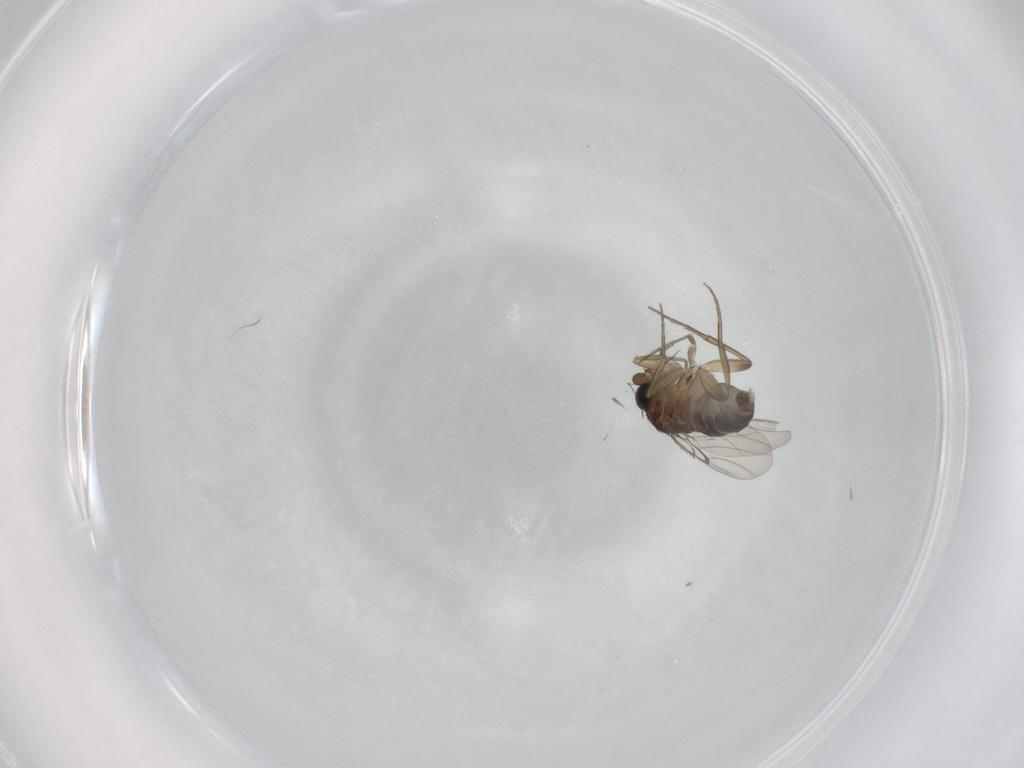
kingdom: Animalia
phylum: Arthropoda
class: Insecta
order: Diptera
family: Phoridae
